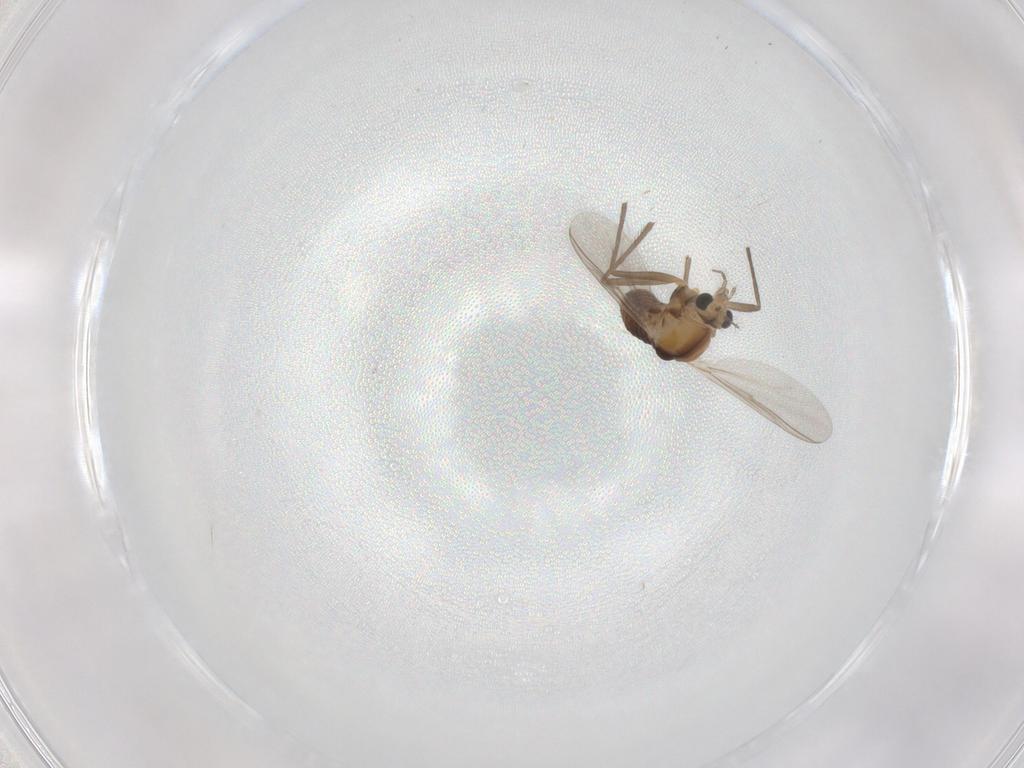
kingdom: Animalia
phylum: Arthropoda
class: Insecta
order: Diptera
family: Chironomidae
